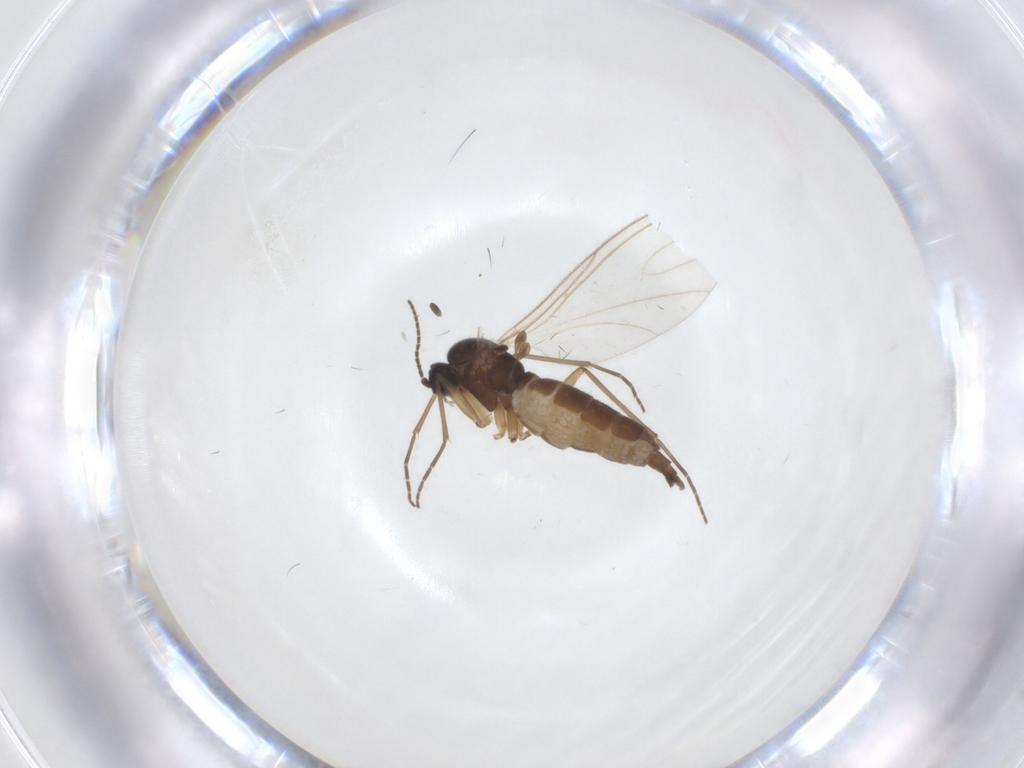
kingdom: Animalia
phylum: Arthropoda
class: Insecta
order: Diptera
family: Sciaridae
